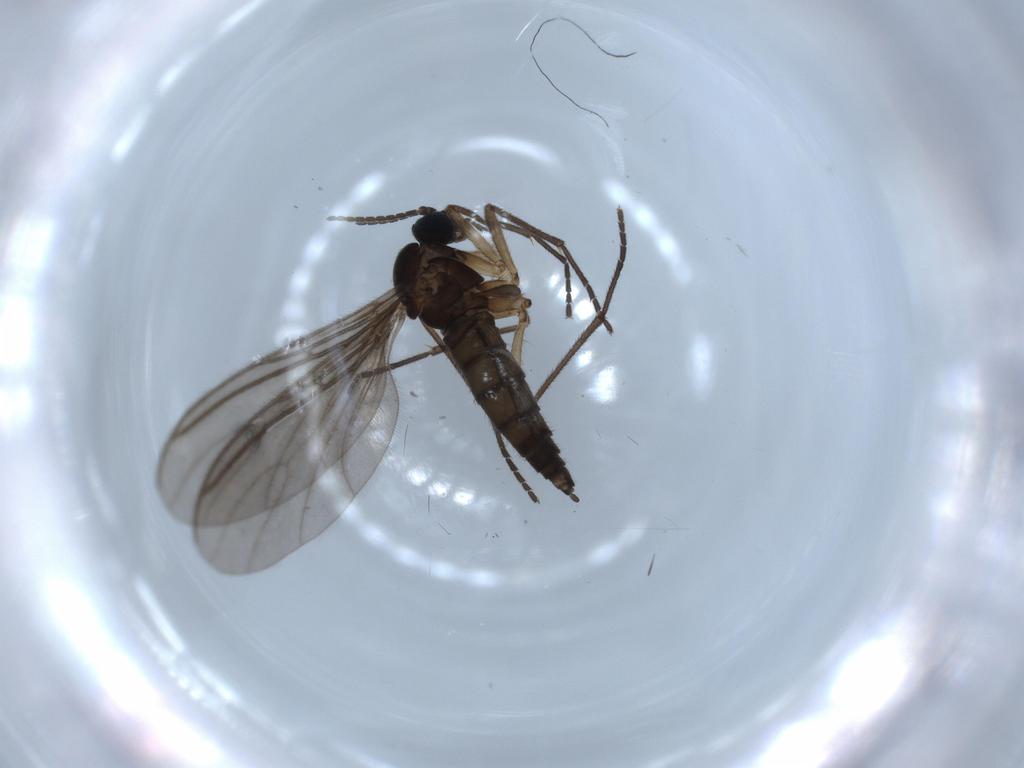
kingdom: Animalia
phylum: Arthropoda
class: Insecta
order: Diptera
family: Sciaridae
